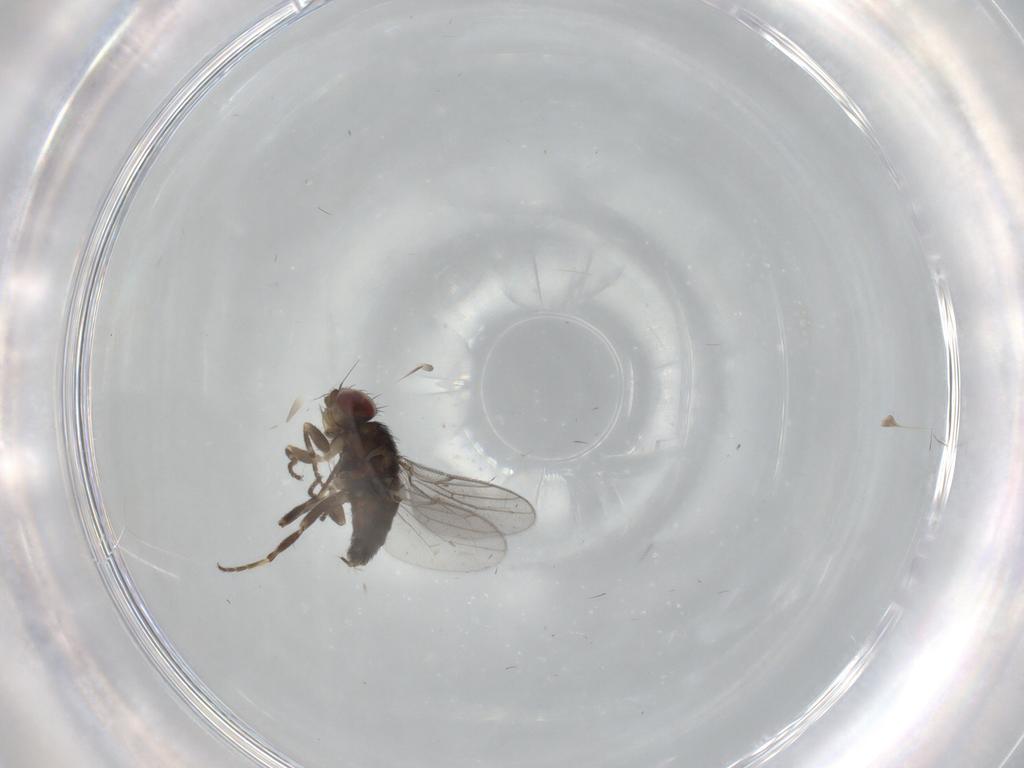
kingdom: Animalia
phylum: Arthropoda
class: Insecta
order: Diptera
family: Chloropidae
